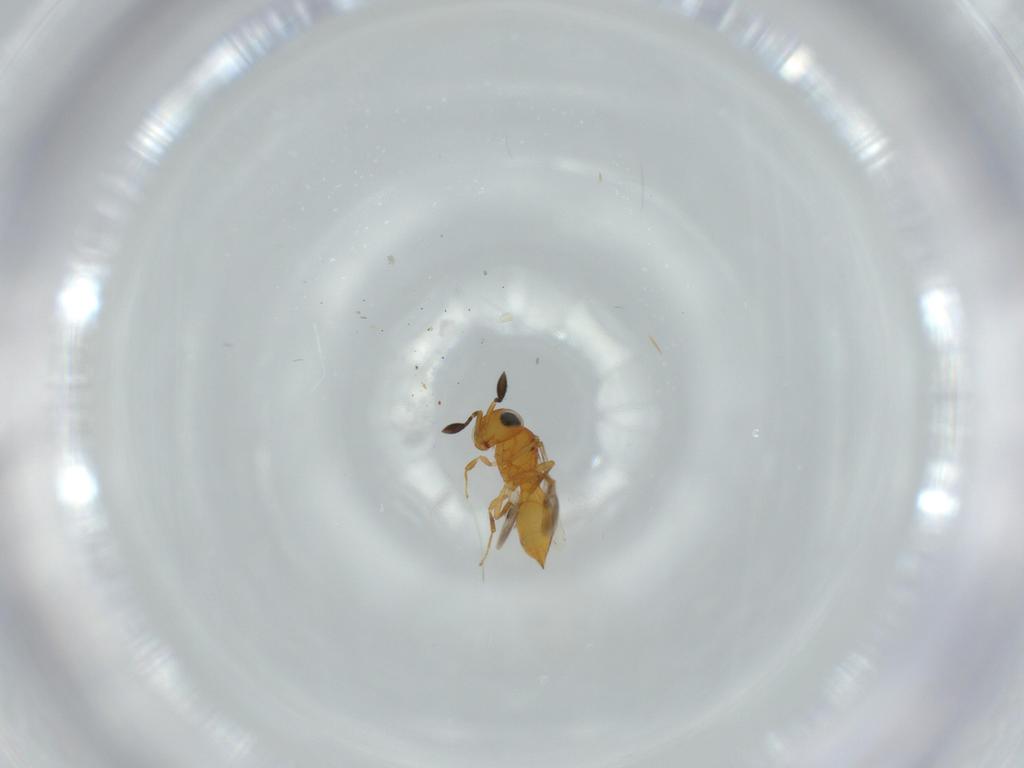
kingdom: Animalia
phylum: Arthropoda
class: Insecta
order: Hymenoptera
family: Scelionidae
